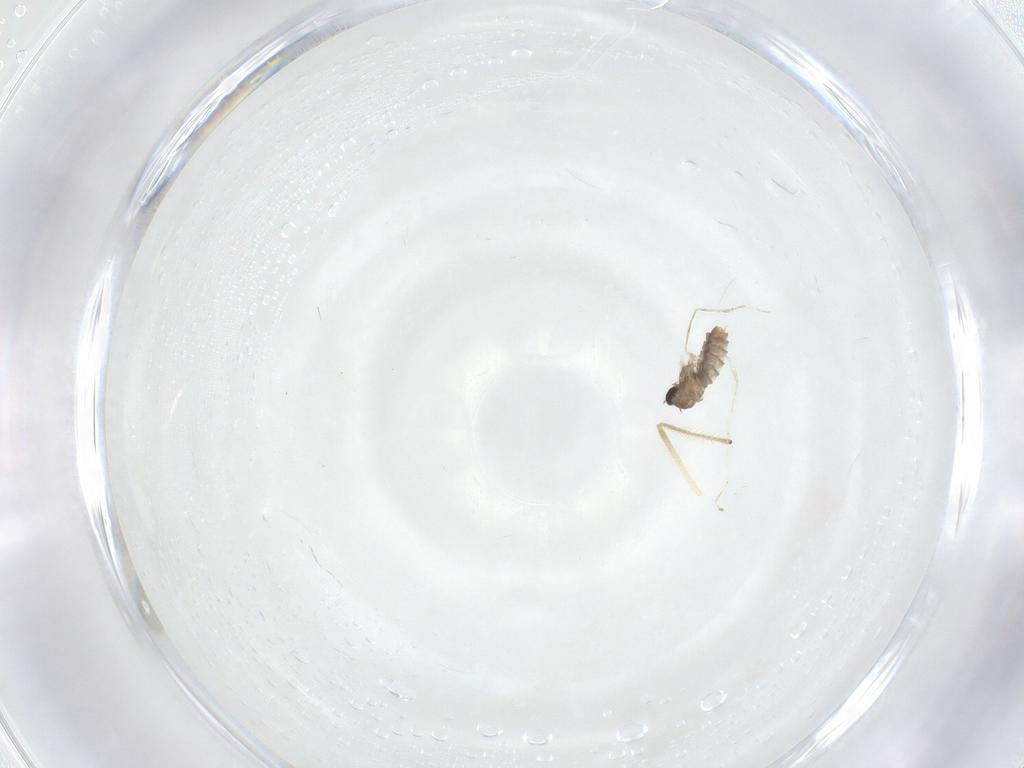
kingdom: Animalia
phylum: Arthropoda
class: Insecta
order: Diptera
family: Chironomidae
